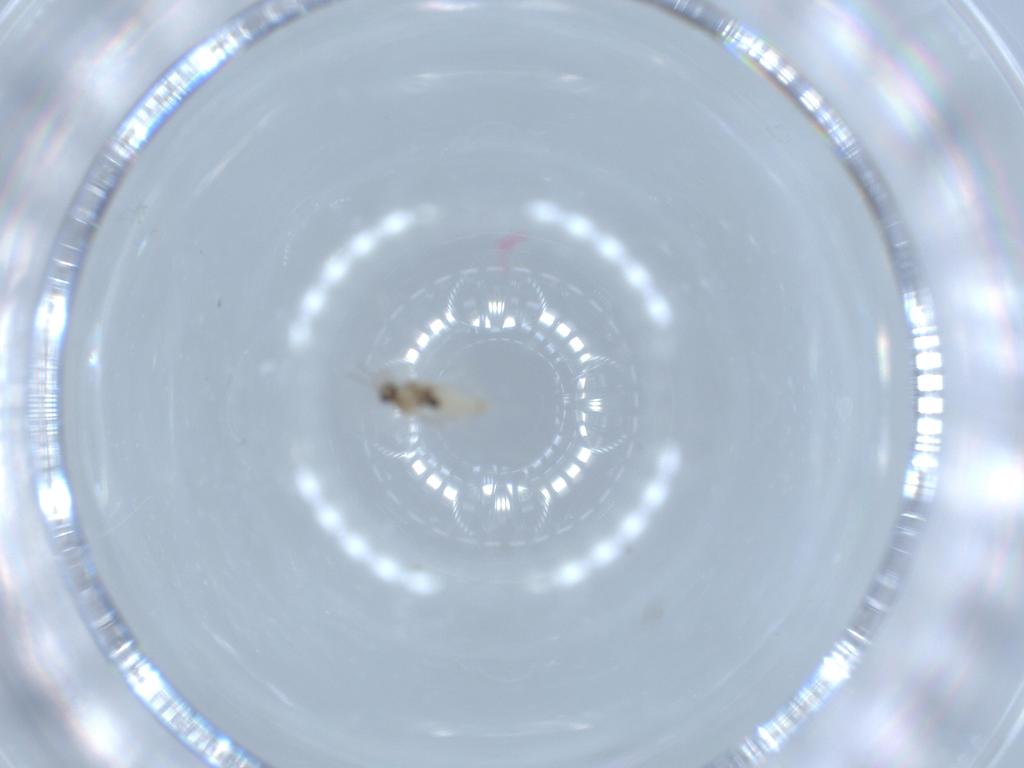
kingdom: Animalia
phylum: Arthropoda
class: Insecta
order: Diptera
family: Cecidomyiidae
